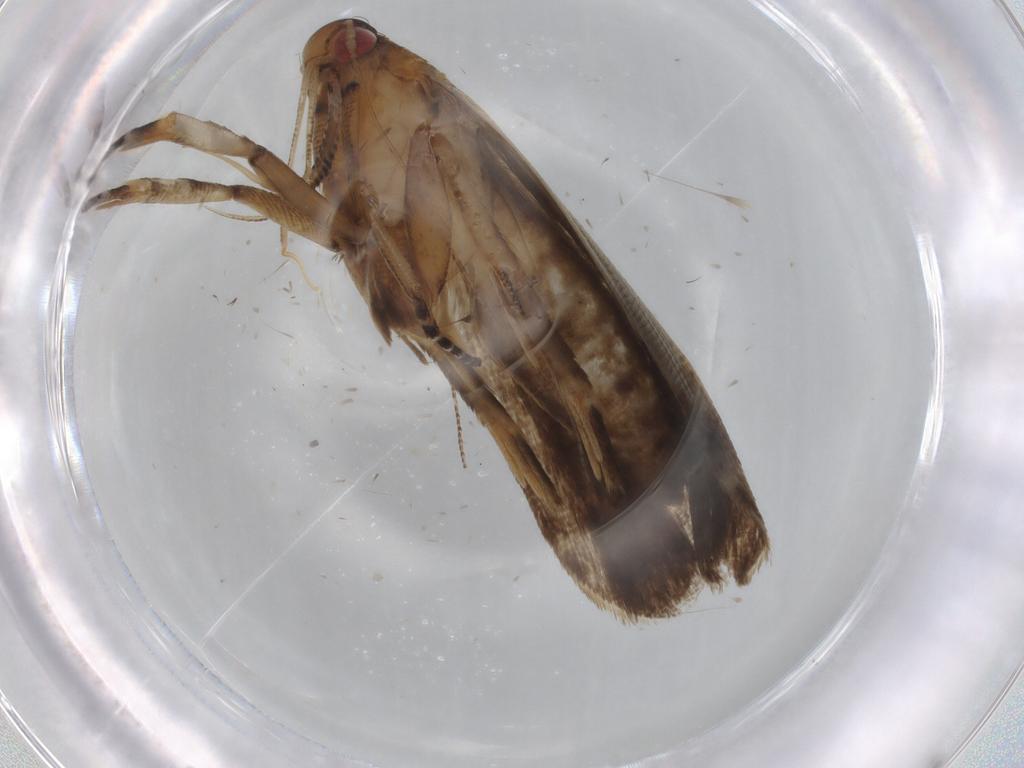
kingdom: Animalia
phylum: Arthropoda
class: Insecta
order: Lepidoptera
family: Gelechiidae
